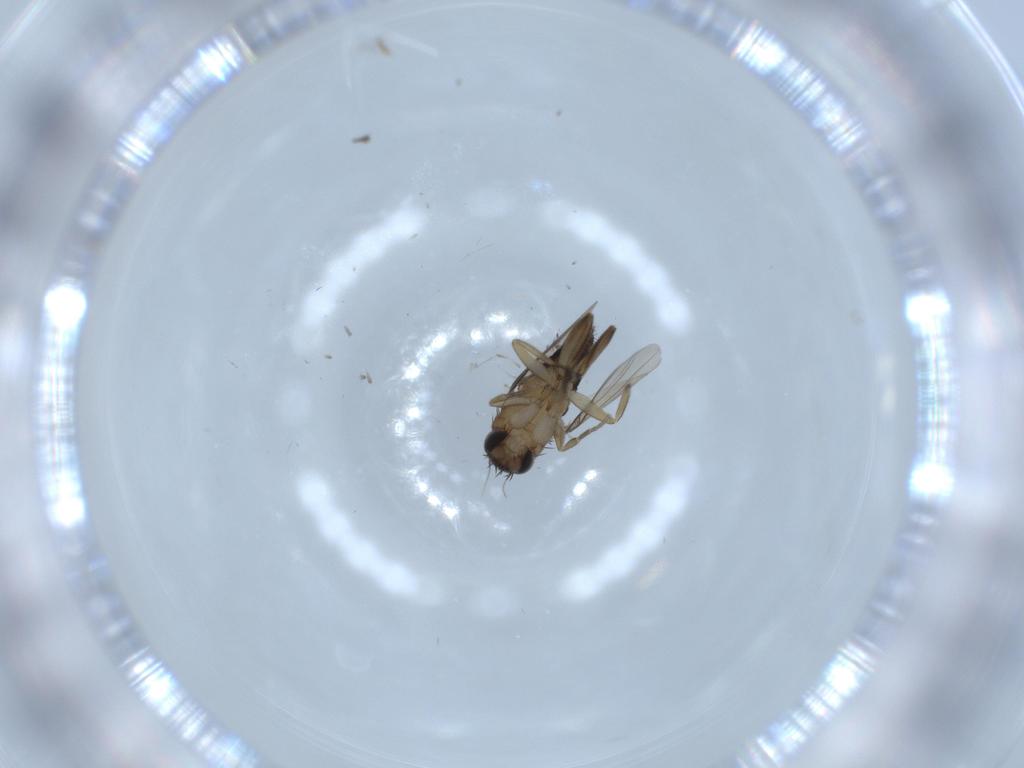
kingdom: Animalia
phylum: Arthropoda
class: Insecta
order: Diptera
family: Phoridae
